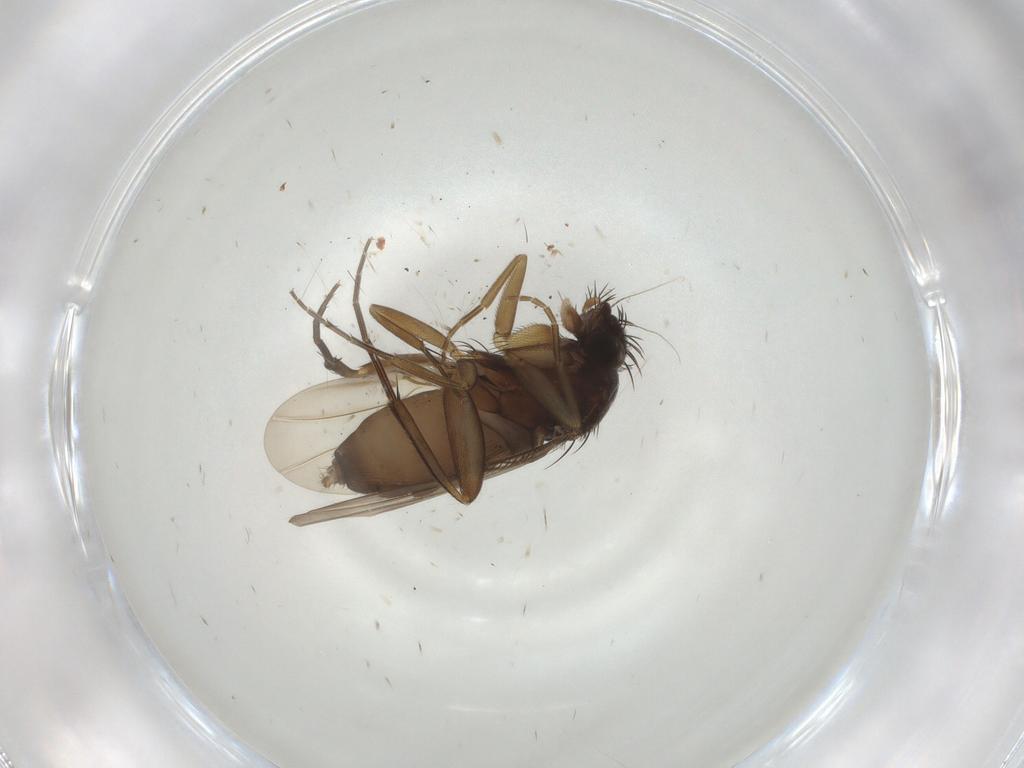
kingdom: Animalia
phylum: Arthropoda
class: Insecta
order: Diptera
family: Phoridae
